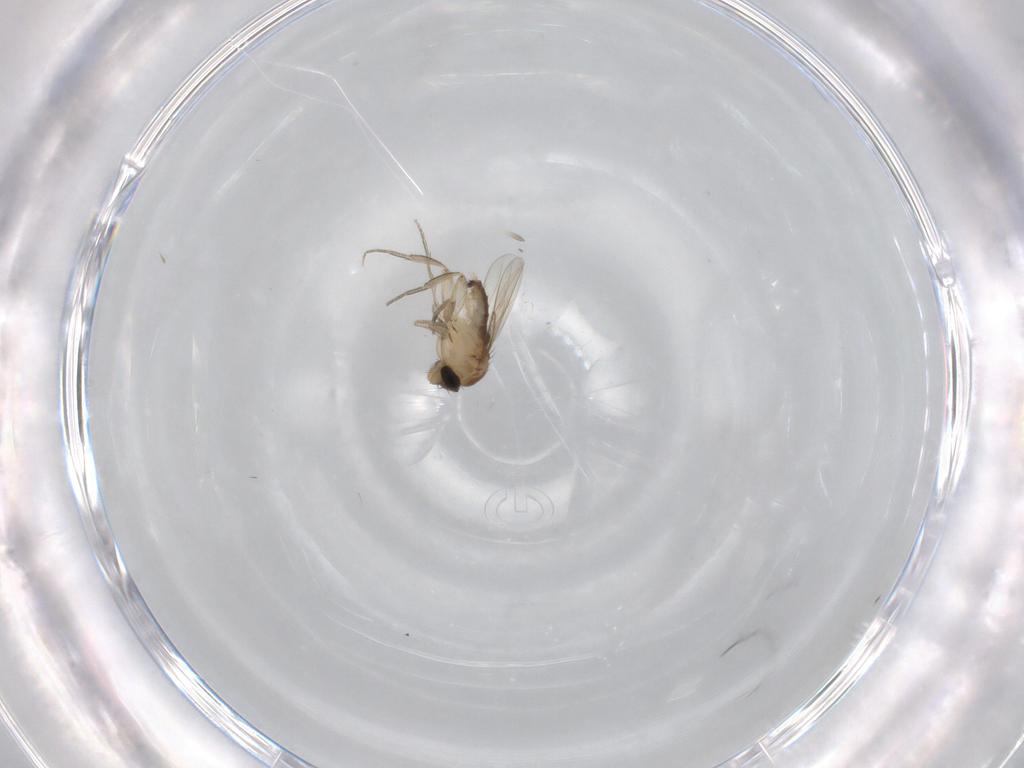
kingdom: Animalia
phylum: Arthropoda
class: Insecta
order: Diptera
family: Phoridae
